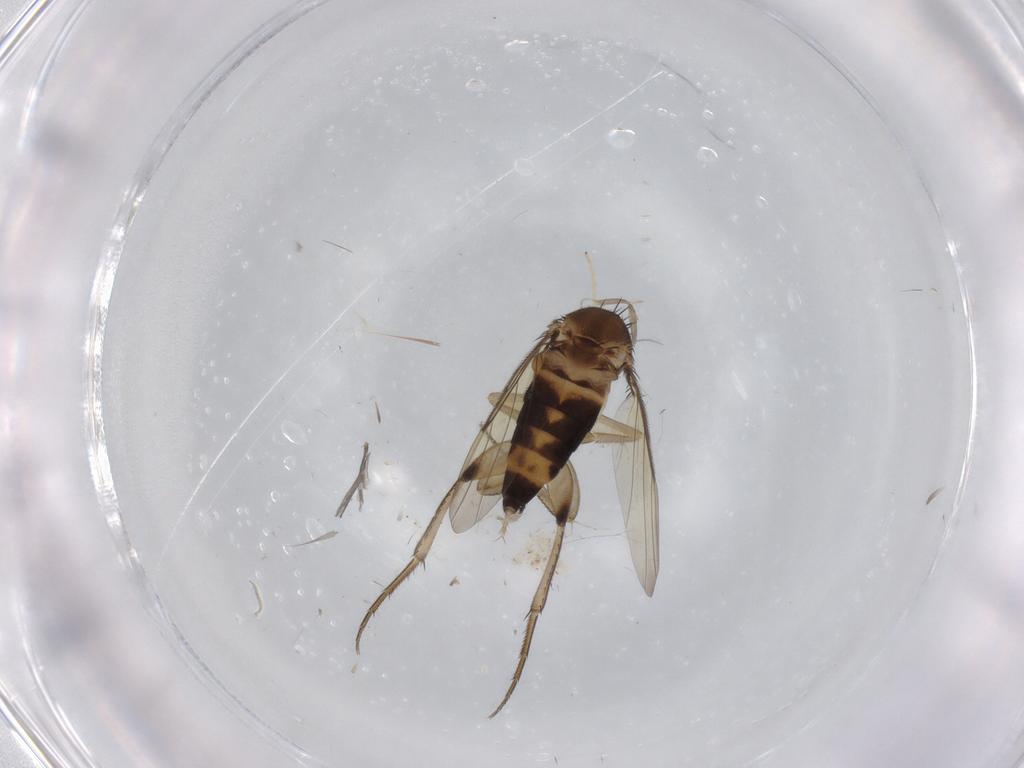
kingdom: Animalia
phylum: Arthropoda
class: Insecta
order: Diptera
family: Phoridae
